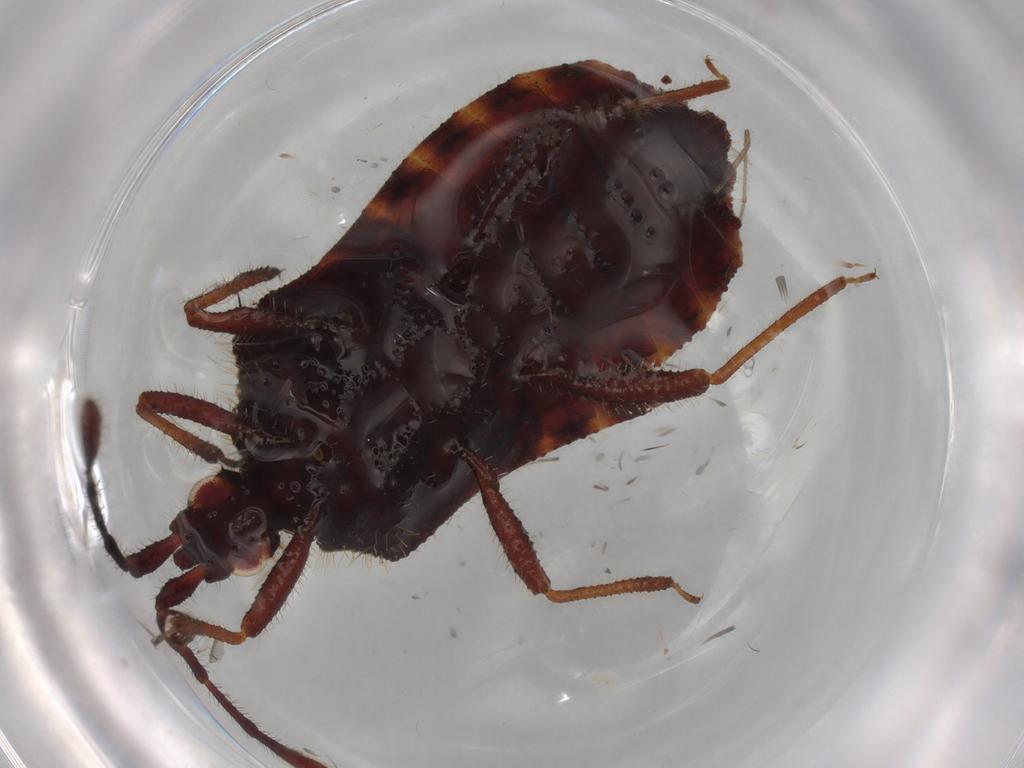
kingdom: Animalia
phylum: Arthropoda
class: Insecta
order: Hemiptera
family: Aradidae
